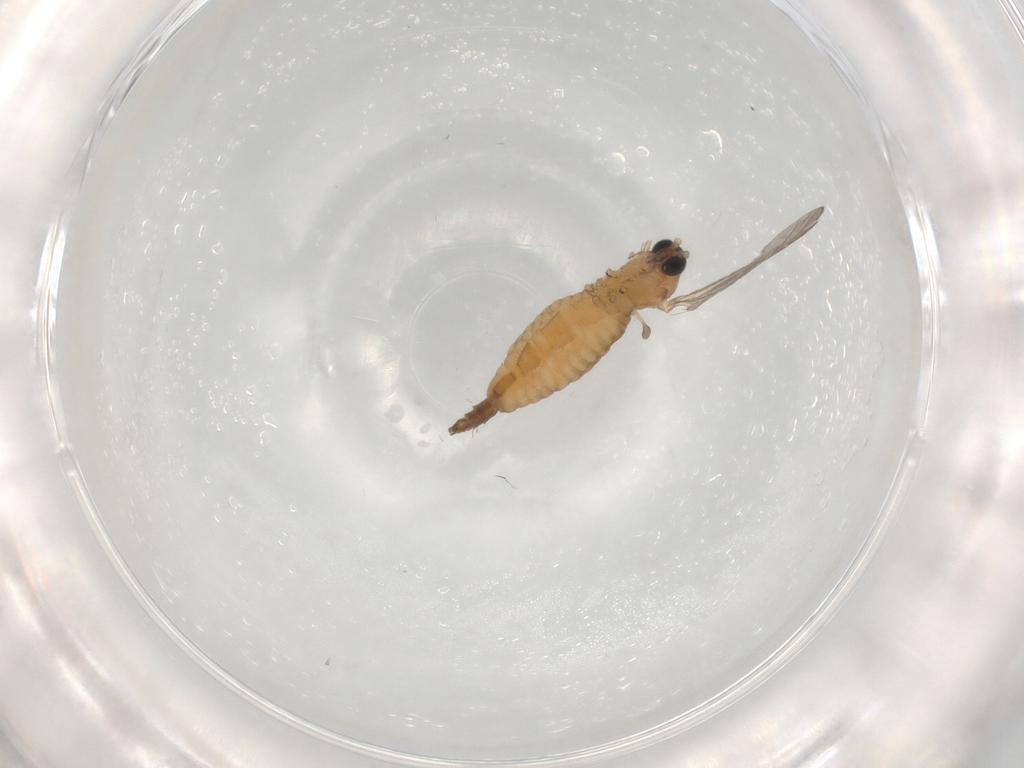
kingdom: Animalia
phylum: Arthropoda
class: Insecta
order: Diptera
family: Sciaridae
